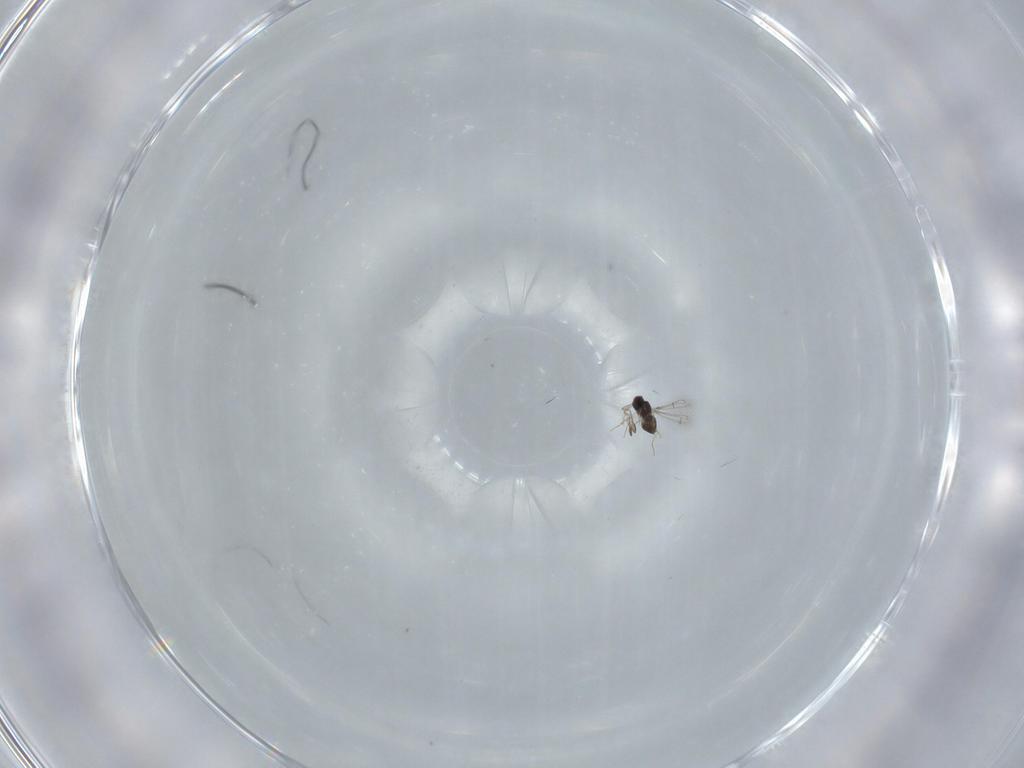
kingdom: Animalia
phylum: Arthropoda
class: Insecta
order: Hymenoptera
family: Mymaridae
